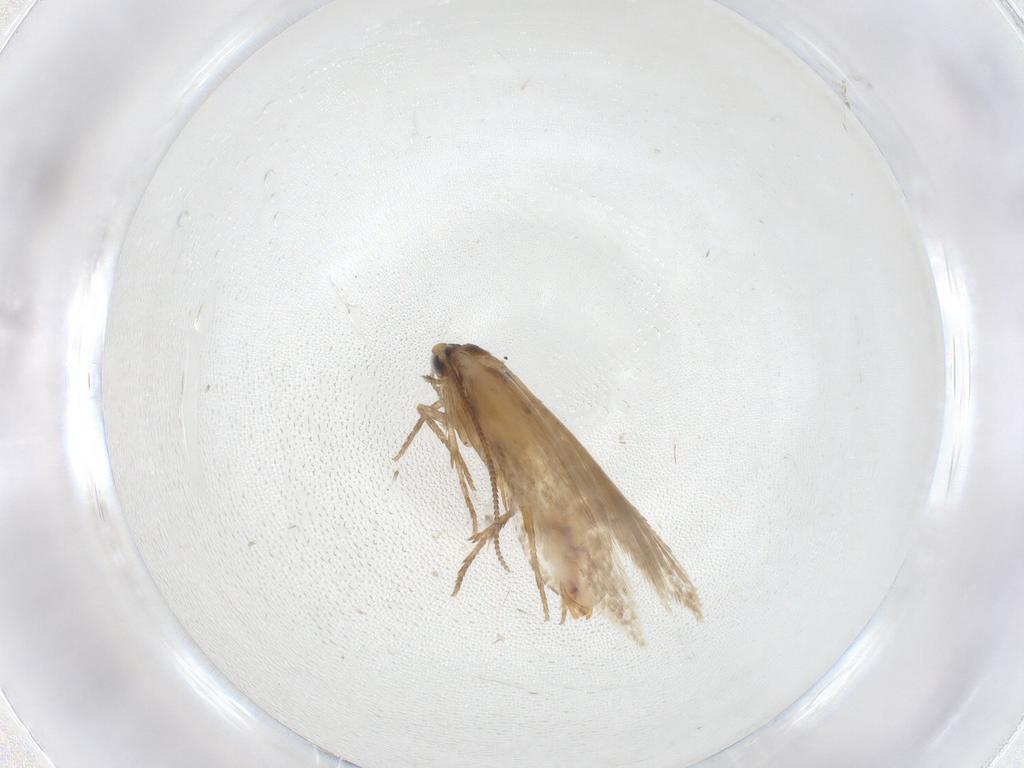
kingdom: Animalia
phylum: Arthropoda
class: Insecta
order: Lepidoptera
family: Nepticulidae
